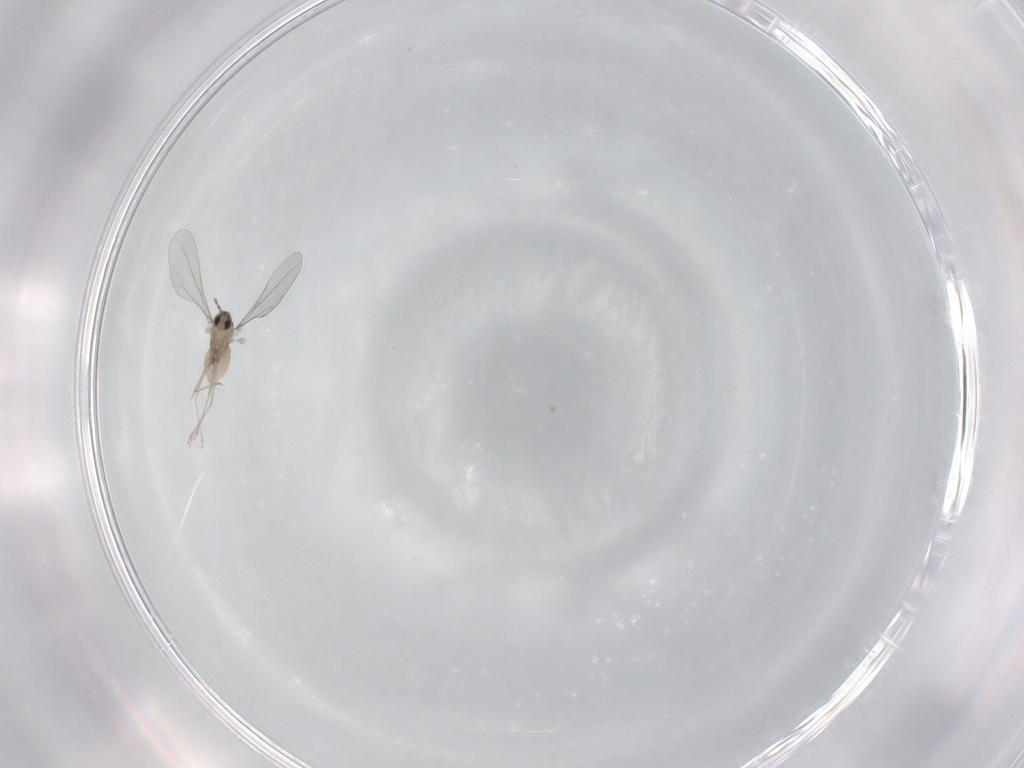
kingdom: Animalia
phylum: Arthropoda
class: Insecta
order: Diptera
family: Cecidomyiidae
